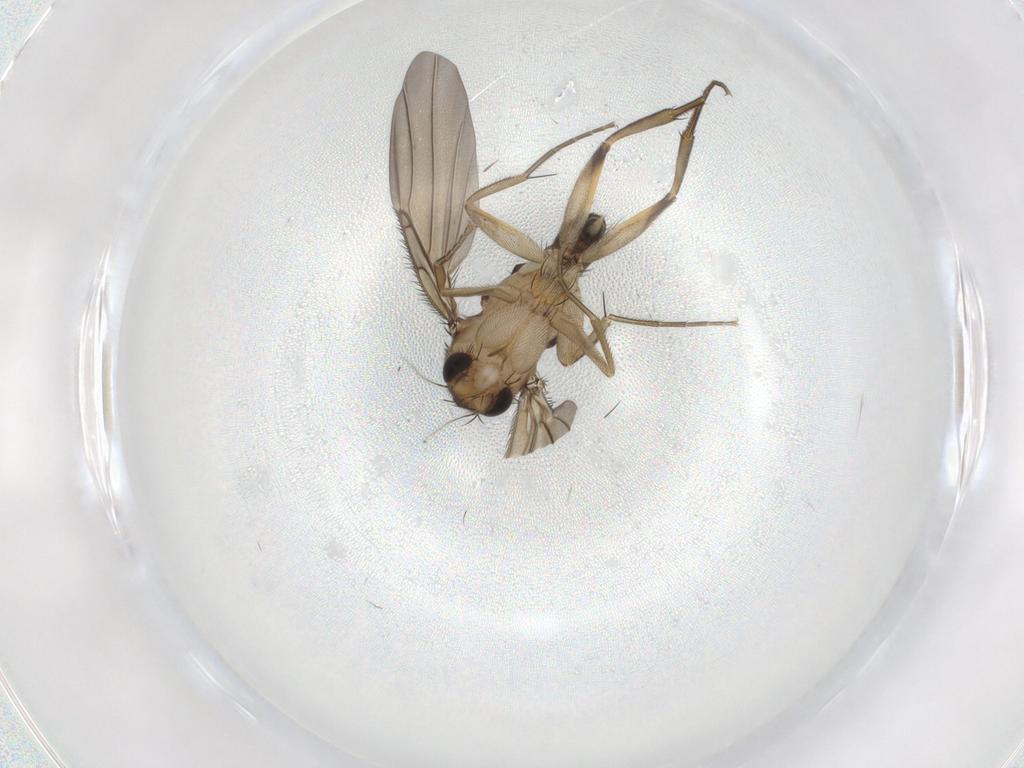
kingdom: Animalia
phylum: Arthropoda
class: Insecta
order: Diptera
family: Phoridae
